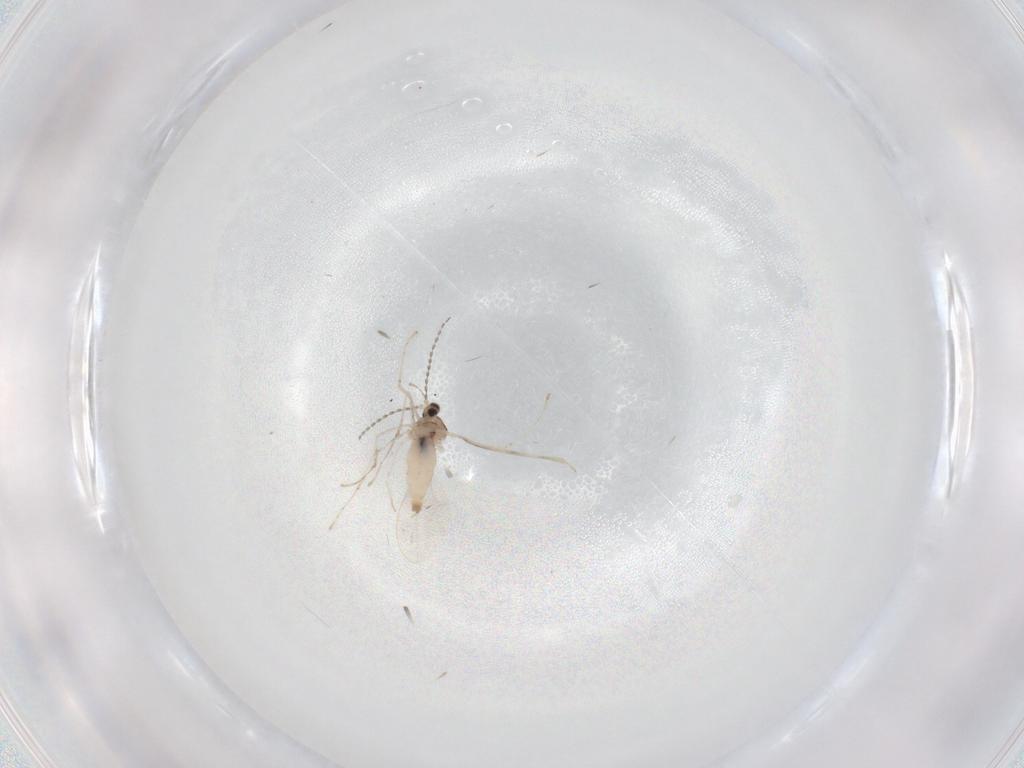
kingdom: Animalia
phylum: Arthropoda
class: Insecta
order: Diptera
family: Cecidomyiidae
